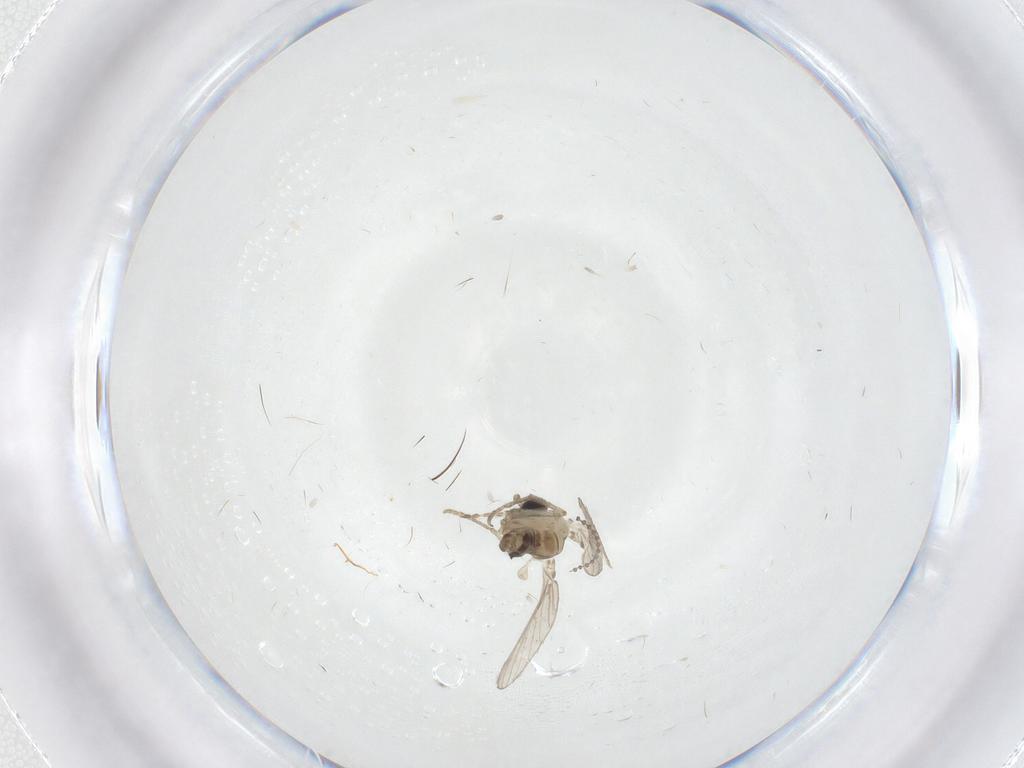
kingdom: Animalia
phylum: Arthropoda
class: Insecta
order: Diptera
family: Psychodidae
